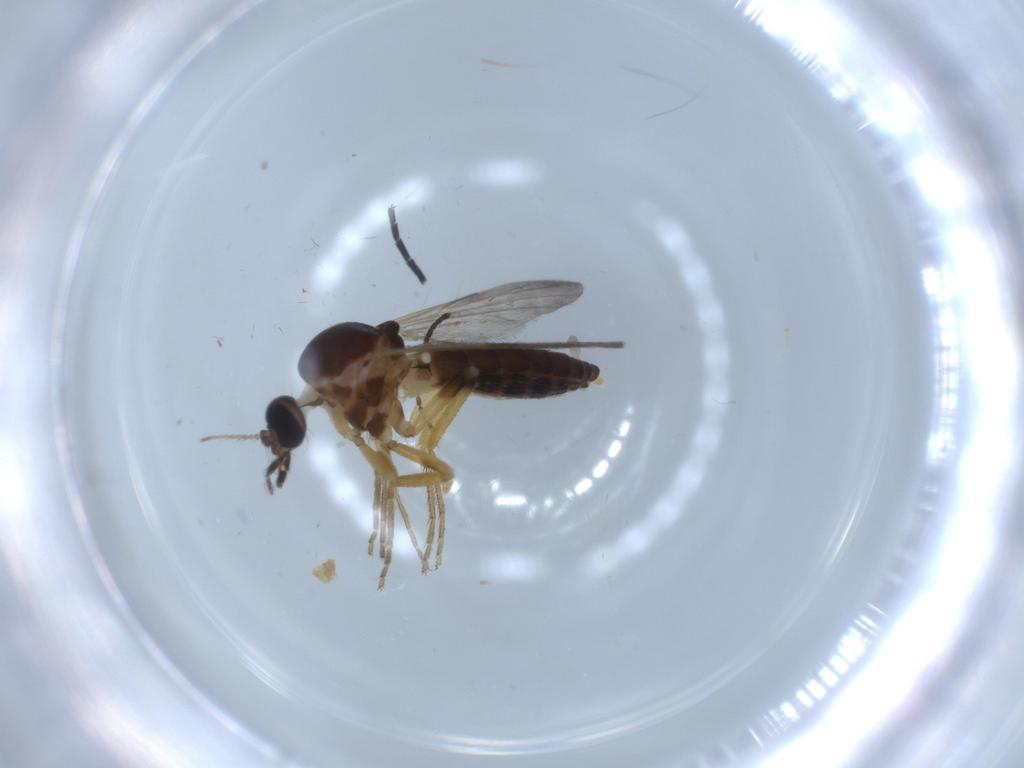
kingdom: Animalia
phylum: Arthropoda
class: Insecta
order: Diptera
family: Ceratopogonidae
